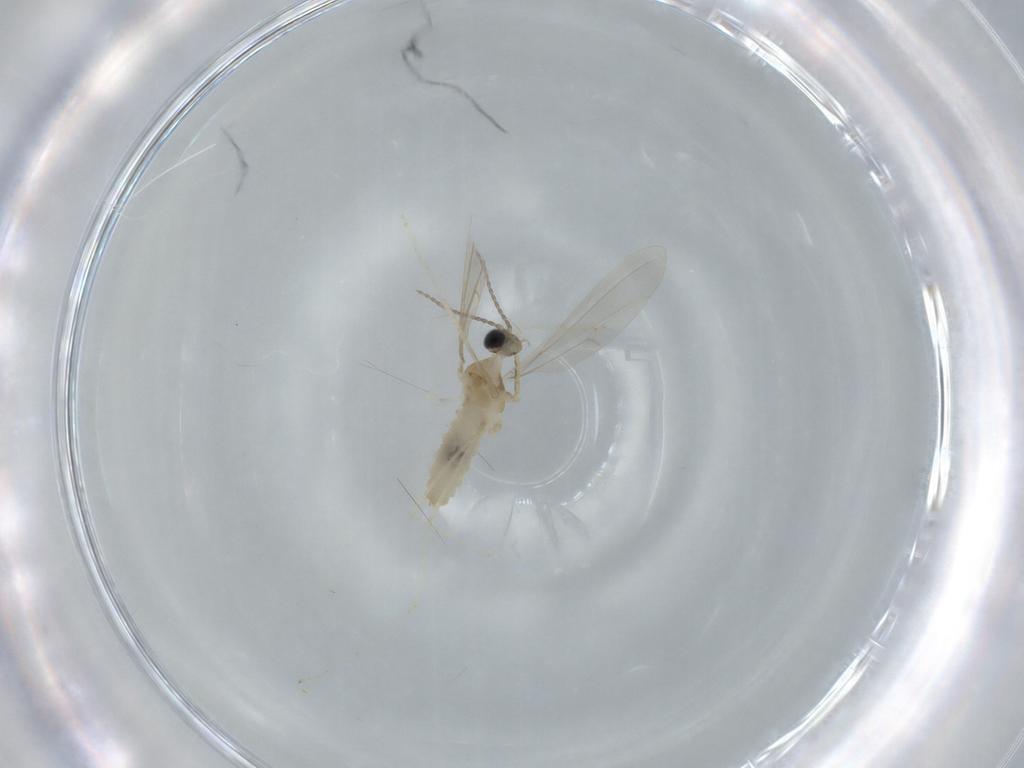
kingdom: Animalia
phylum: Arthropoda
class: Insecta
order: Diptera
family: Cecidomyiidae
